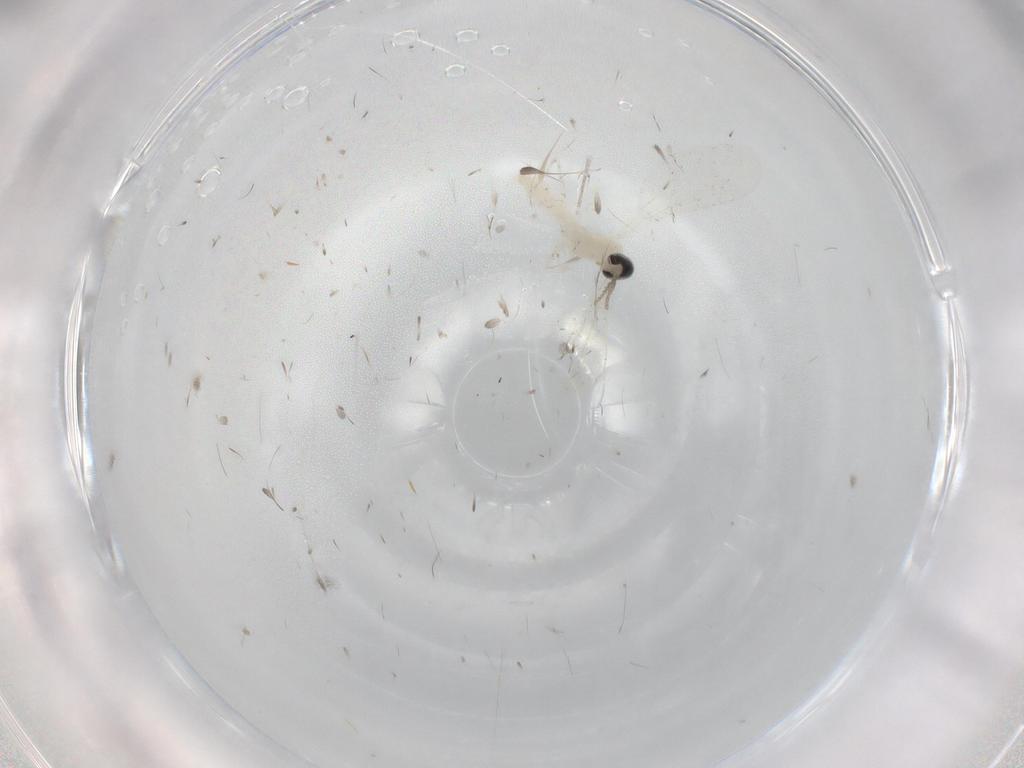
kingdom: Animalia
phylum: Arthropoda
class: Insecta
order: Diptera
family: Cecidomyiidae
